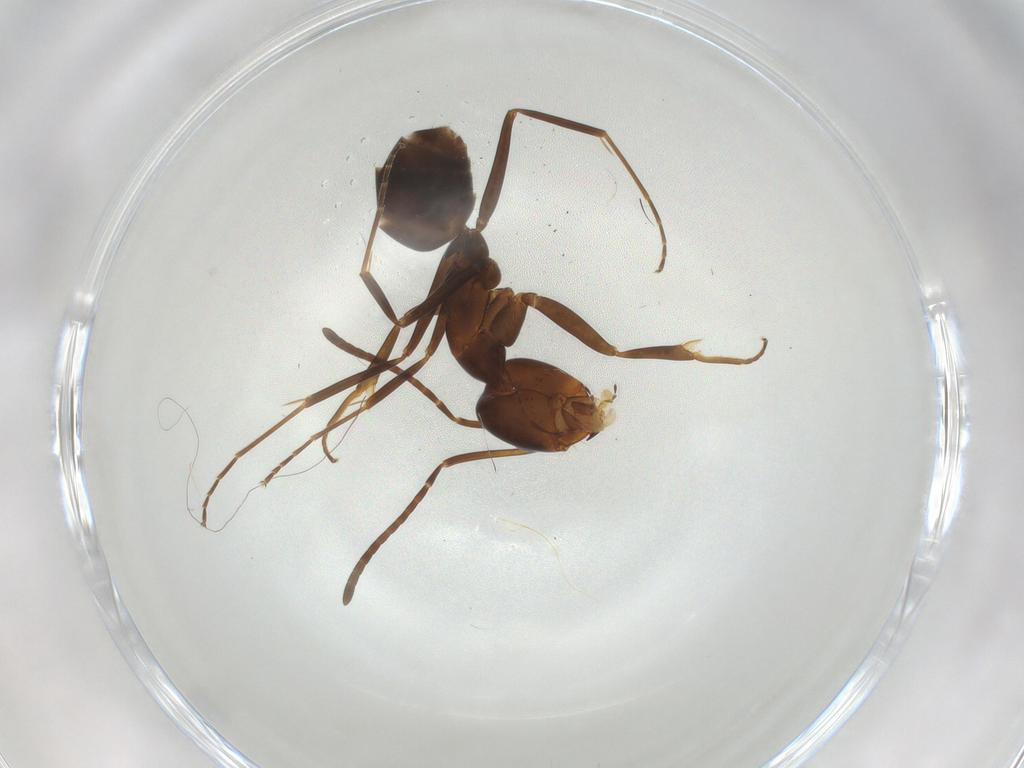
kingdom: Animalia
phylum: Arthropoda
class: Insecta
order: Hymenoptera
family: Formicidae
